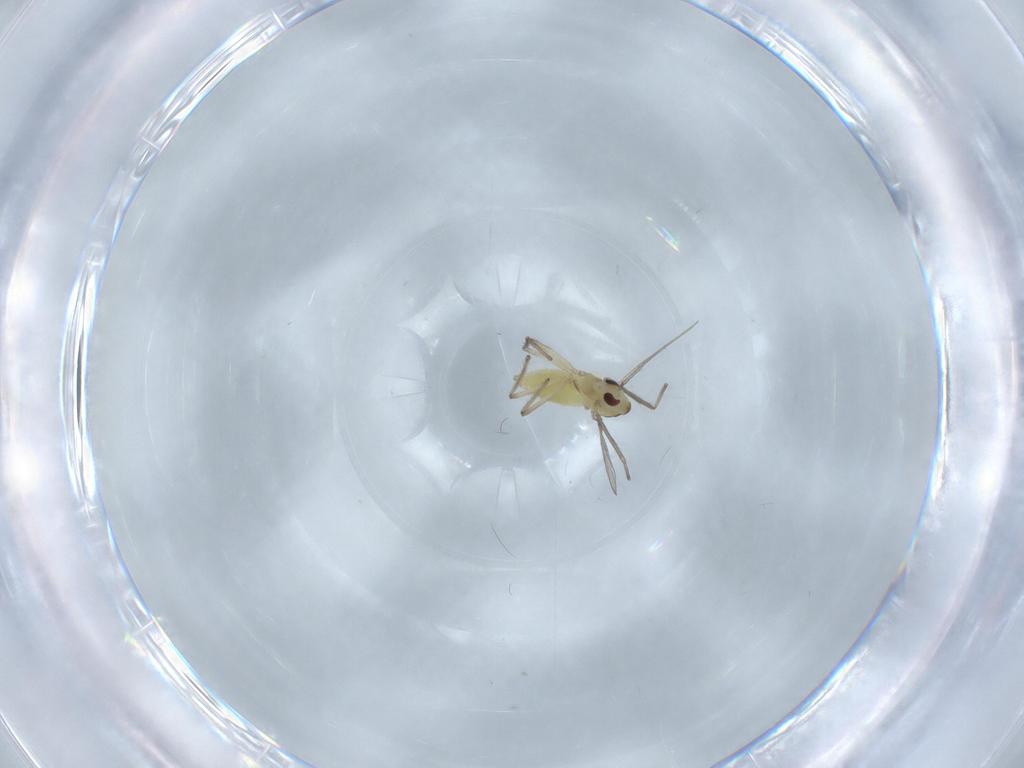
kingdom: Animalia
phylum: Arthropoda
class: Insecta
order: Diptera
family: Chironomidae
